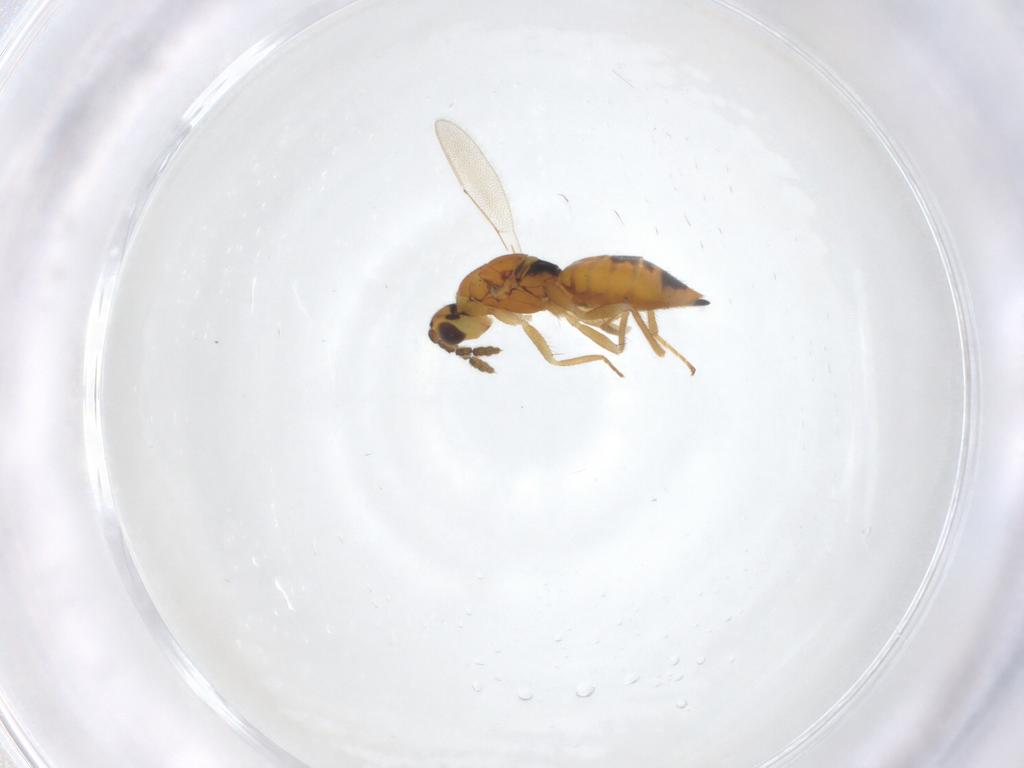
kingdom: Animalia
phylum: Arthropoda
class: Insecta
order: Hymenoptera
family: Eulophidae
